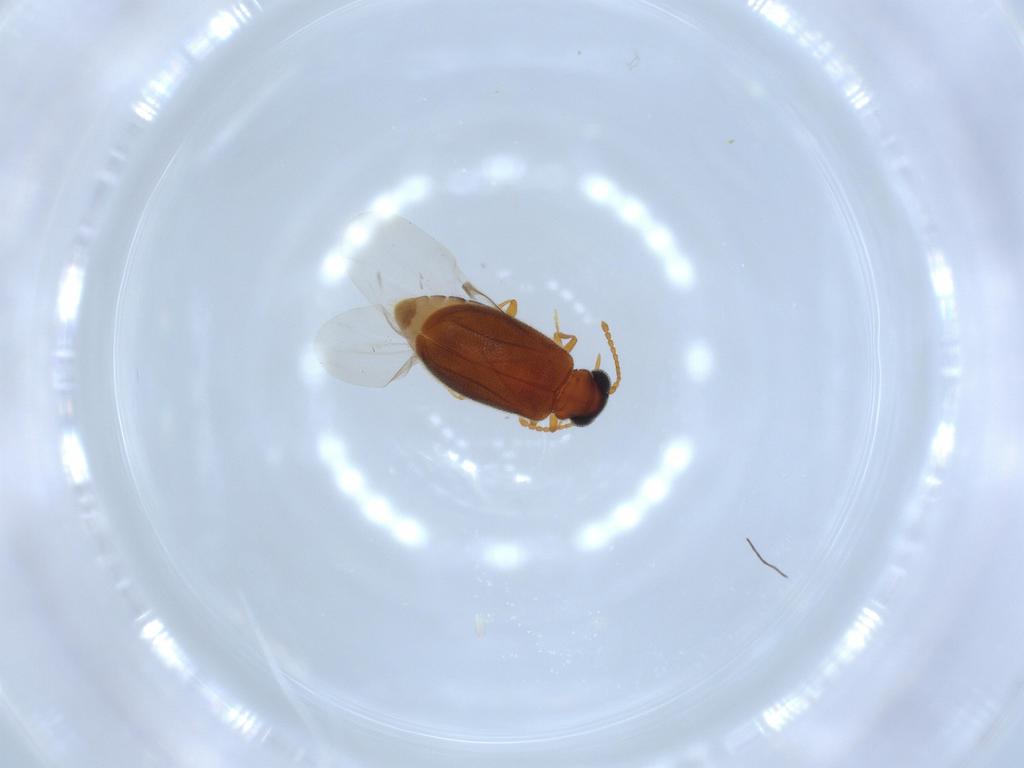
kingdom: Animalia
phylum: Arthropoda
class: Insecta
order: Coleoptera
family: Aderidae
